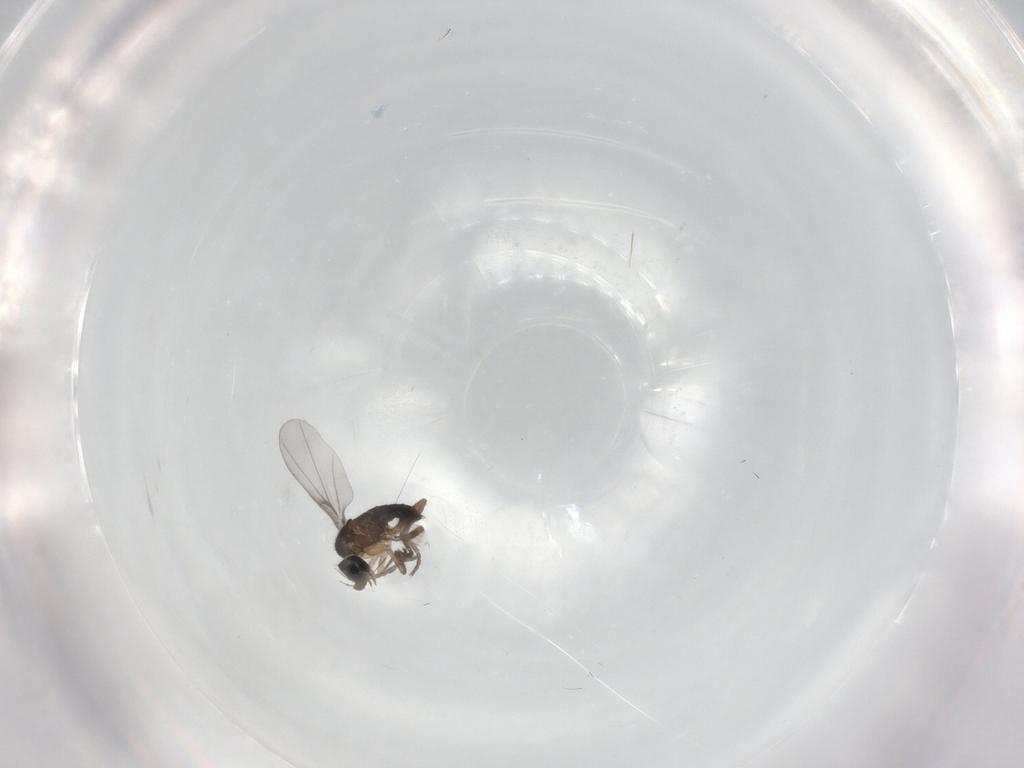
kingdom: Animalia
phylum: Arthropoda
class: Insecta
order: Diptera
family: Phoridae
